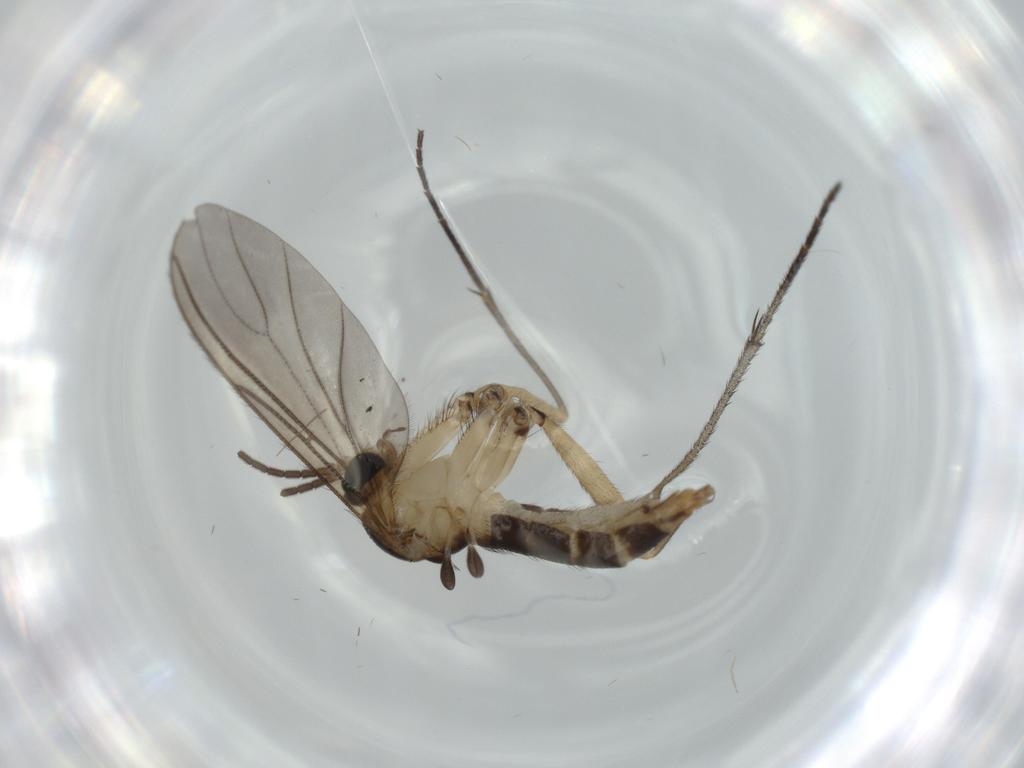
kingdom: Animalia
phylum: Arthropoda
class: Insecta
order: Diptera
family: Sciaridae
